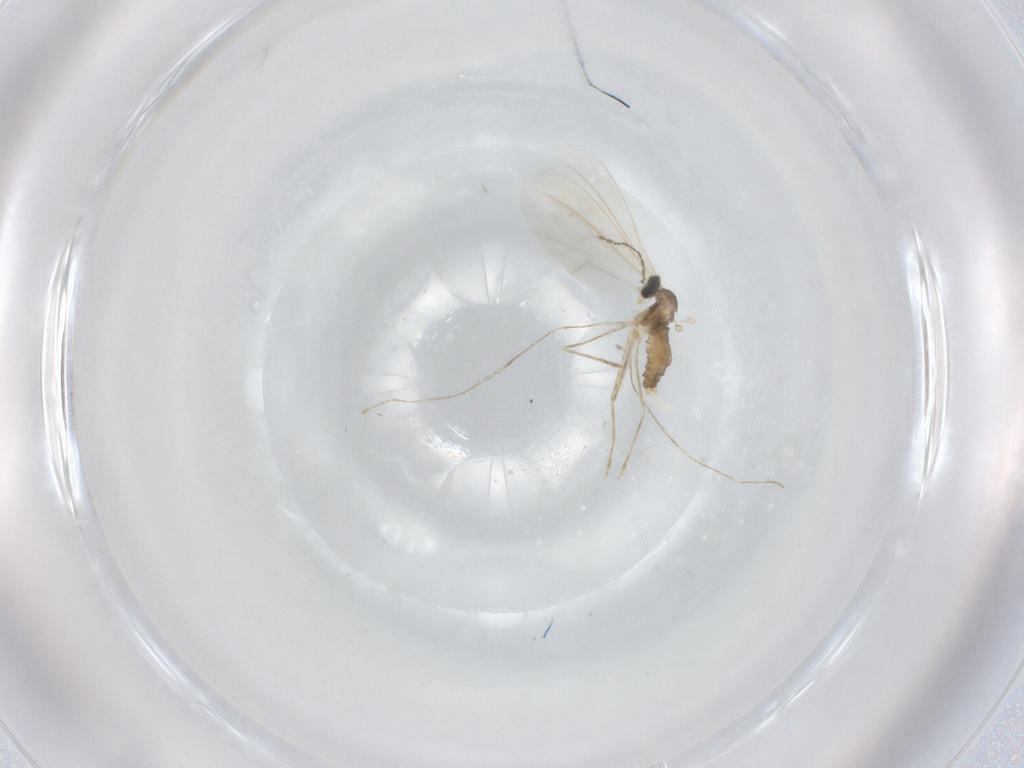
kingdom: Animalia
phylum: Arthropoda
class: Insecta
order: Diptera
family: Cecidomyiidae
